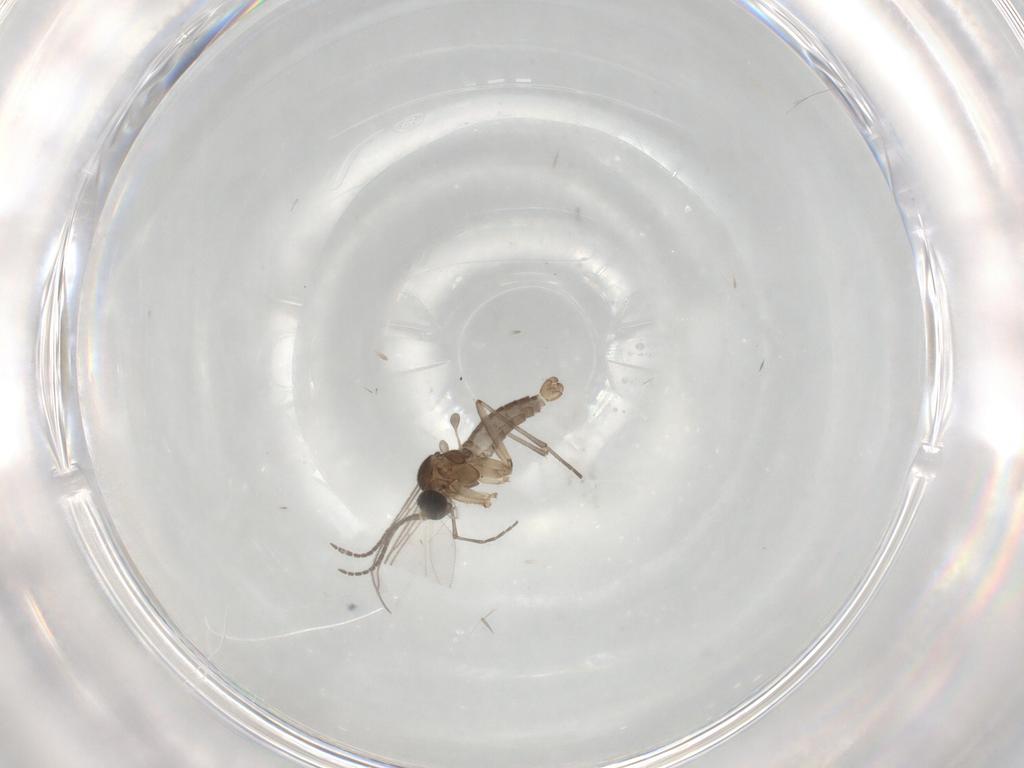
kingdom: Animalia
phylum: Arthropoda
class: Insecta
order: Diptera
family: Sciaridae
